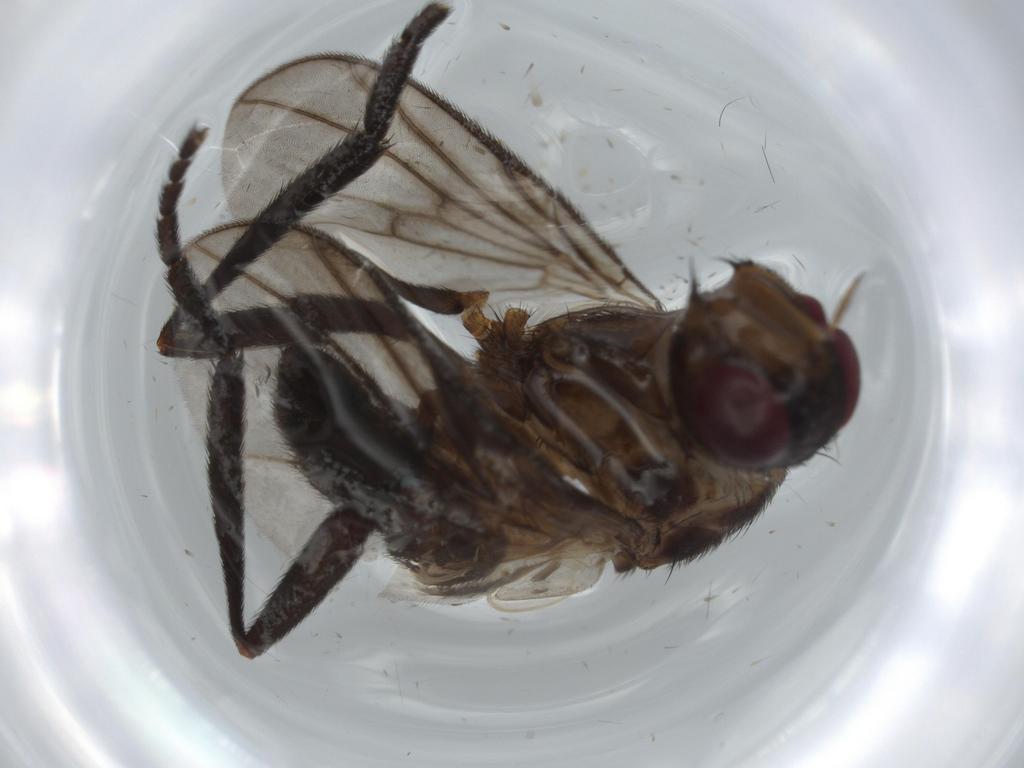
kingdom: Animalia
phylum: Arthropoda
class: Insecta
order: Diptera
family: Calliphoridae
